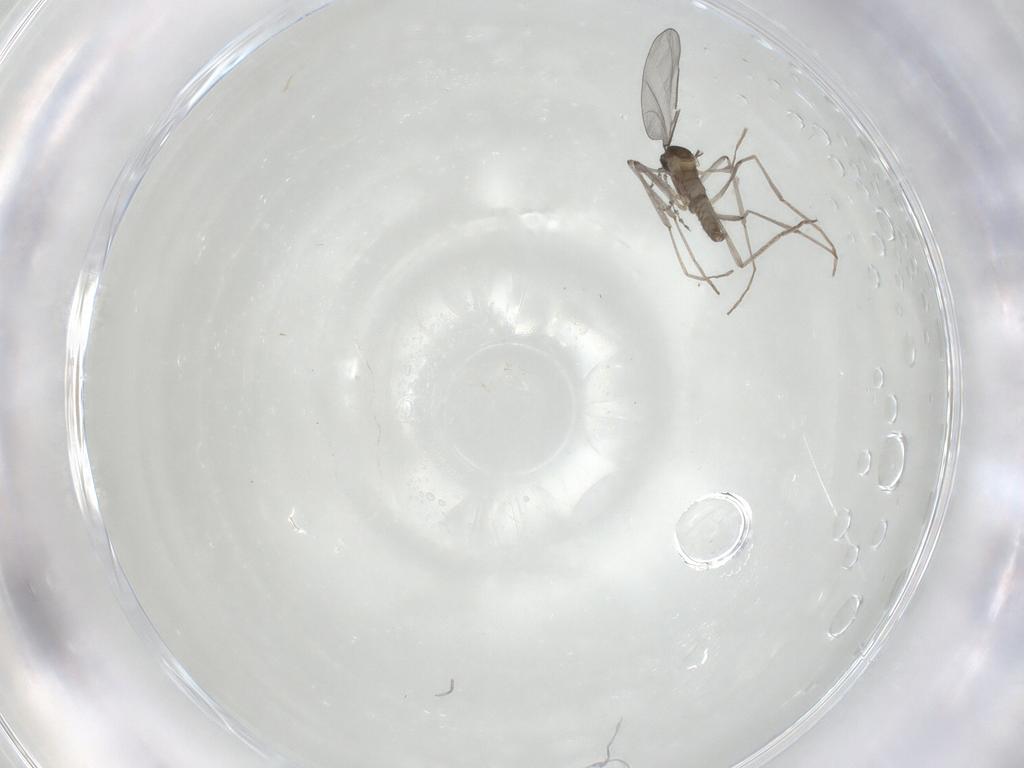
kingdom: Animalia
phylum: Arthropoda
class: Insecta
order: Diptera
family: Cecidomyiidae
